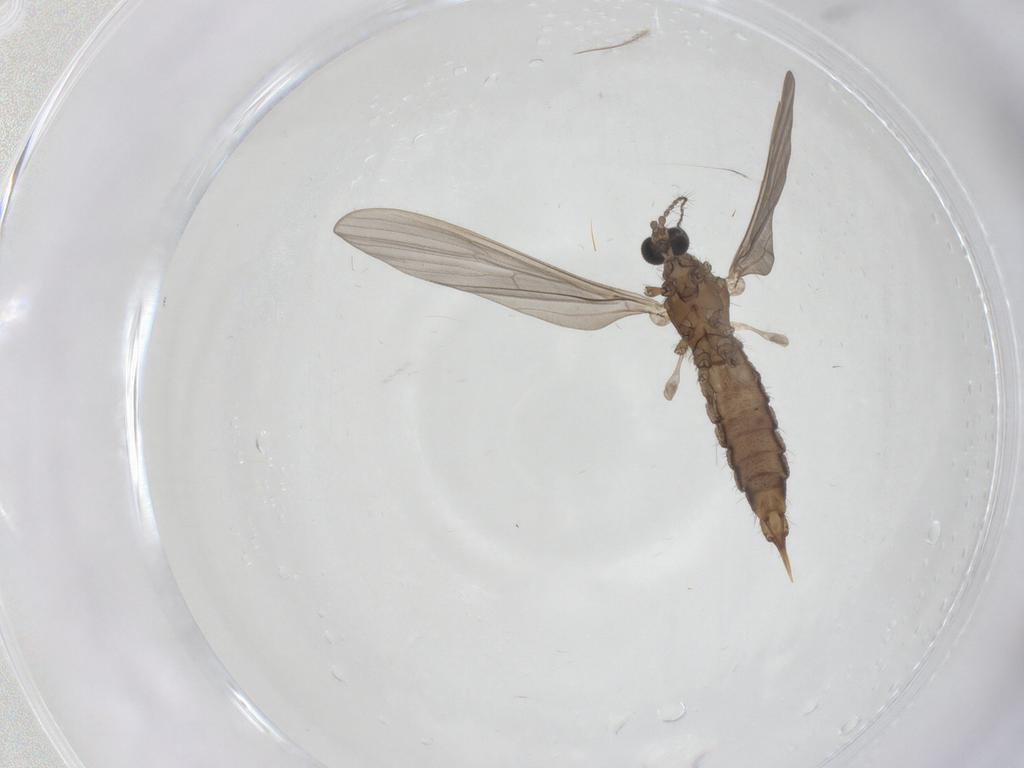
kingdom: Animalia
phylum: Arthropoda
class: Insecta
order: Diptera
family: Limoniidae
